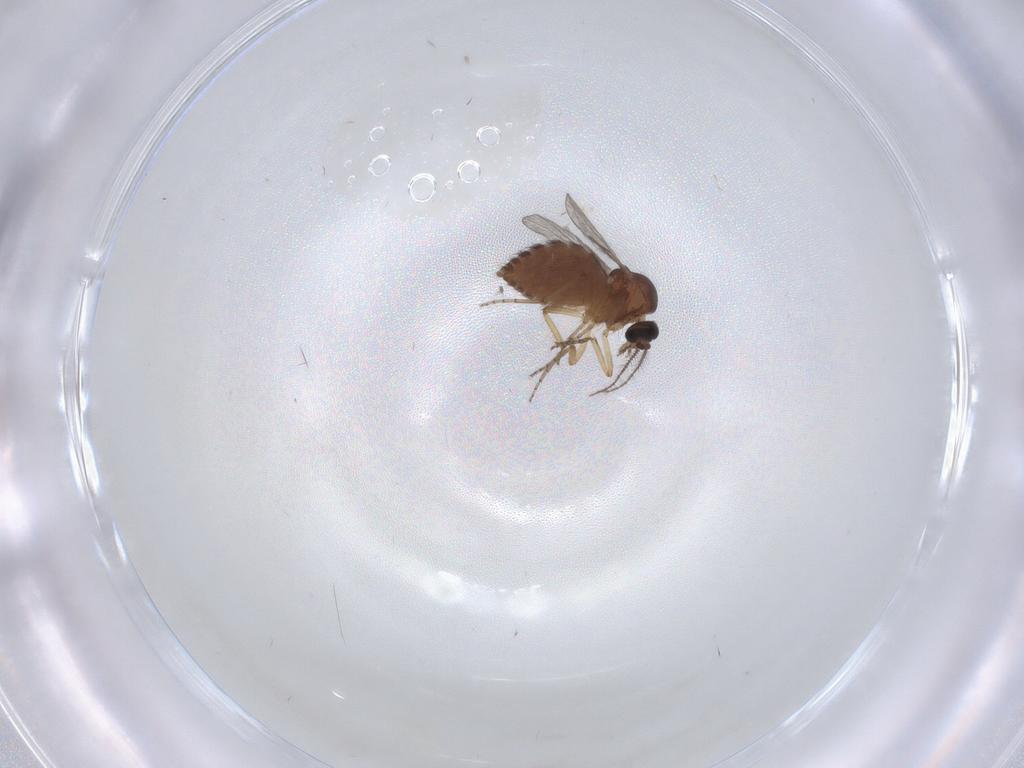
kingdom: Animalia
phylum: Arthropoda
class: Insecta
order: Diptera
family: Ceratopogonidae
